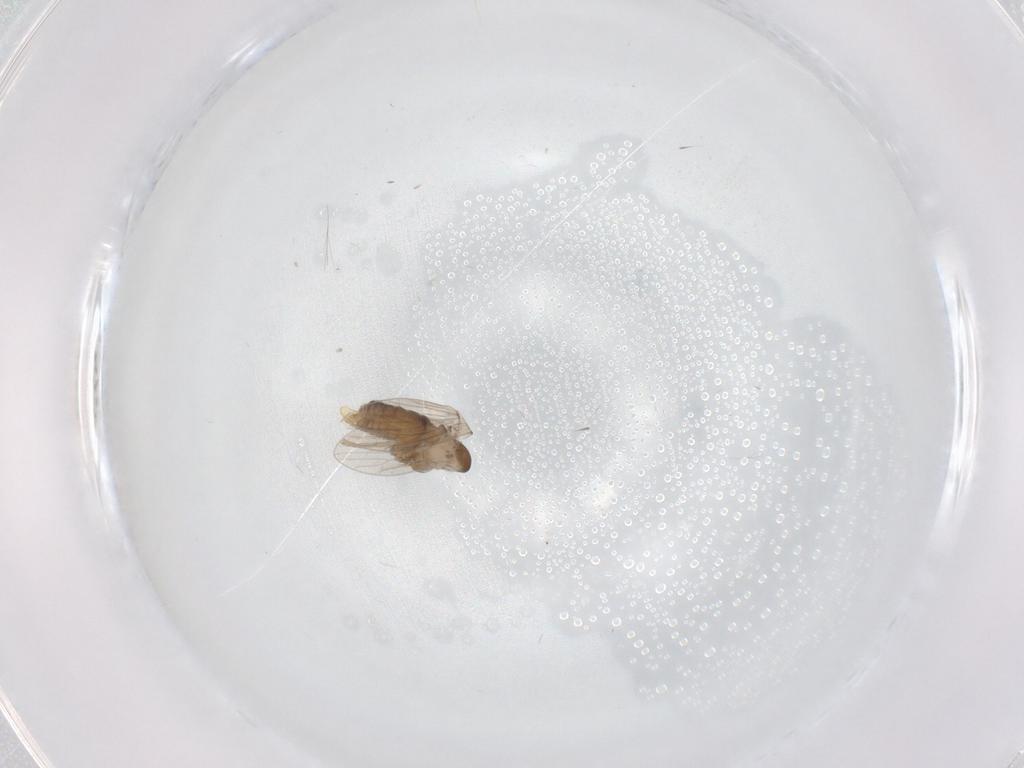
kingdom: Animalia
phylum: Arthropoda
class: Insecta
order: Diptera
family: Psychodidae
